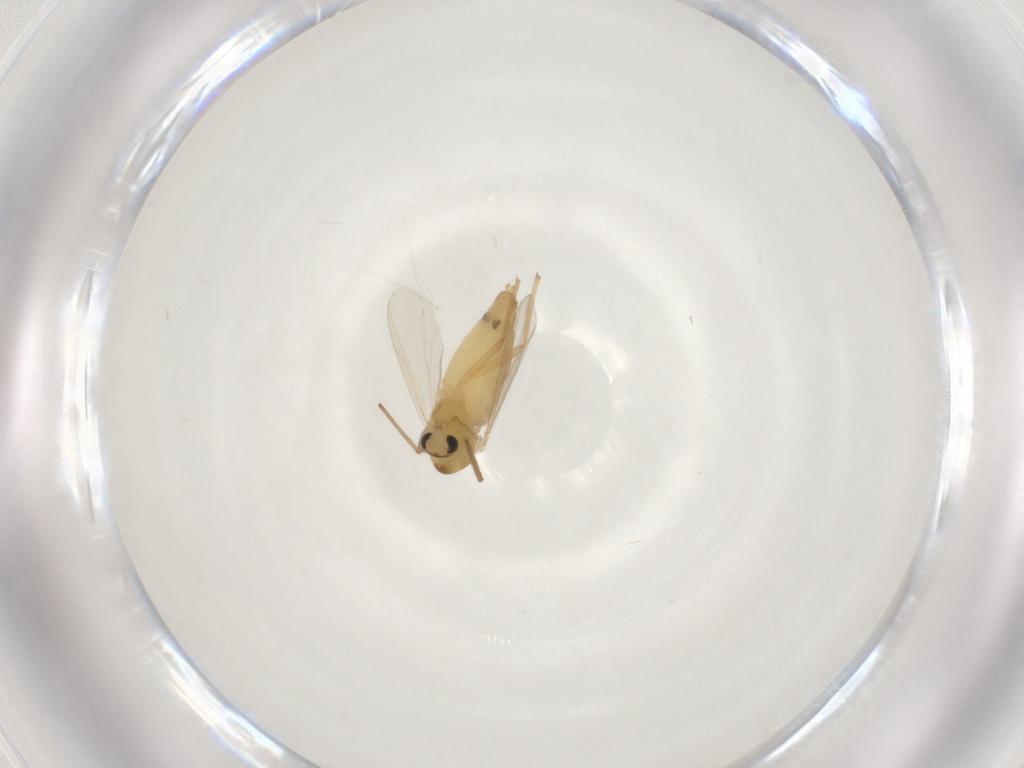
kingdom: Animalia
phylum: Arthropoda
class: Insecta
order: Diptera
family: Chironomidae
